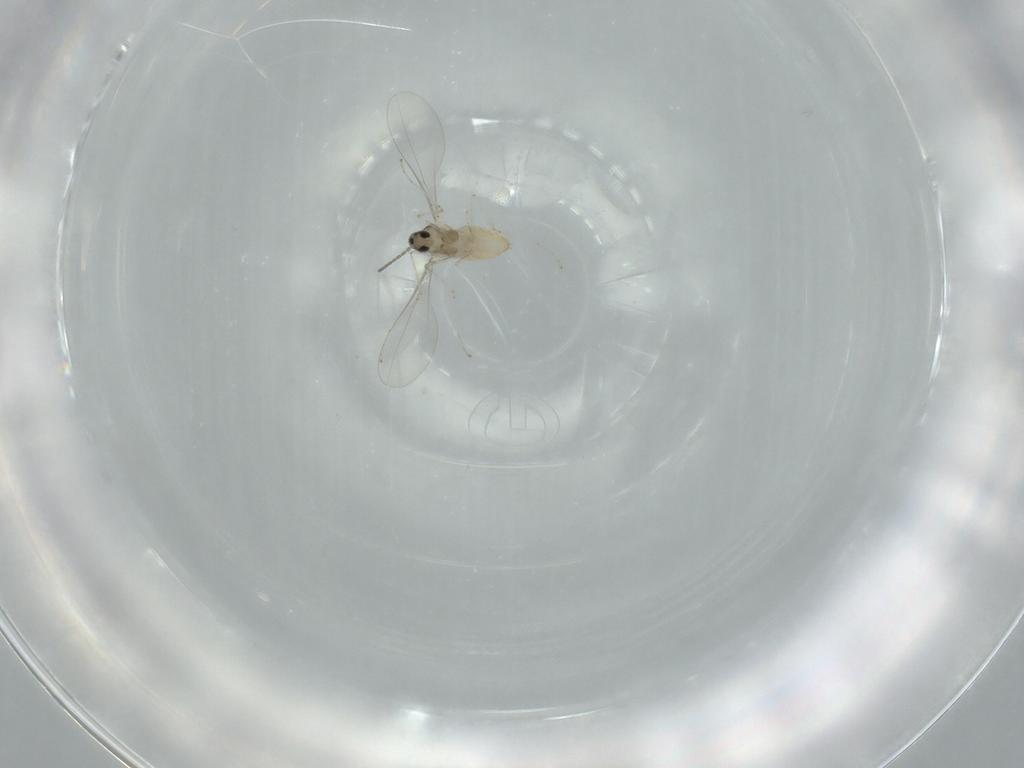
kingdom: Animalia
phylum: Arthropoda
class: Insecta
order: Diptera
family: Cecidomyiidae
